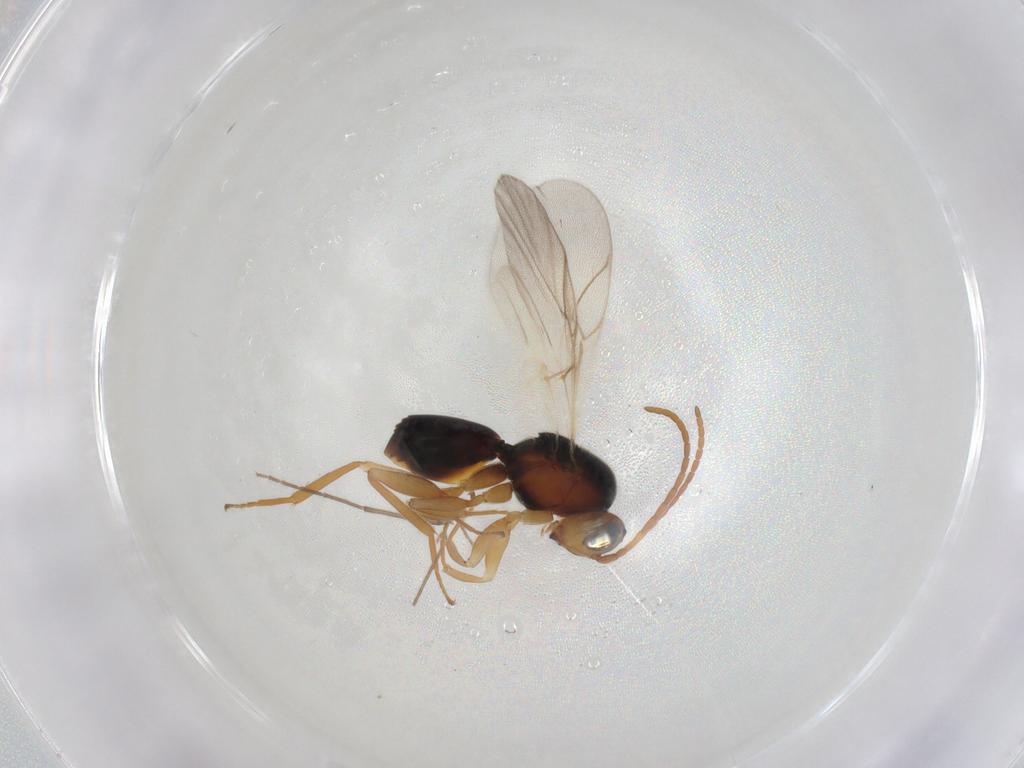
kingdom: Animalia
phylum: Arthropoda
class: Insecta
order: Hymenoptera
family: Cynipidae
